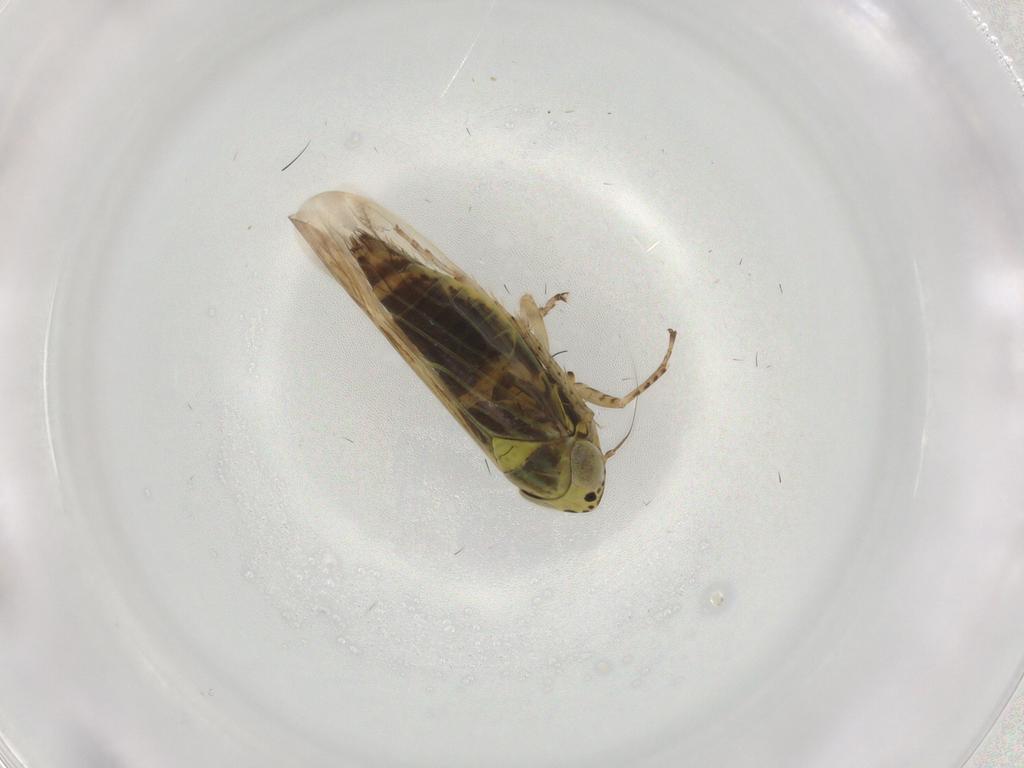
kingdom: Animalia
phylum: Arthropoda
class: Insecta
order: Hemiptera
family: Cicadellidae
